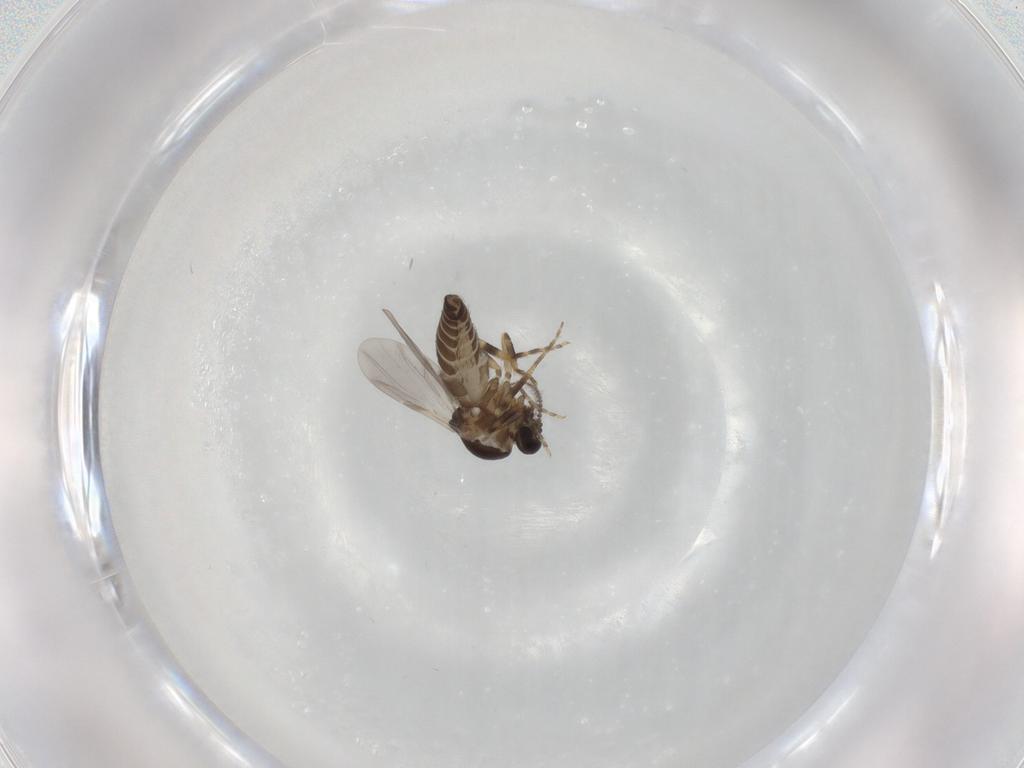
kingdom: Animalia
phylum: Arthropoda
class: Insecta
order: Diptera
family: Ceratopogonidae
